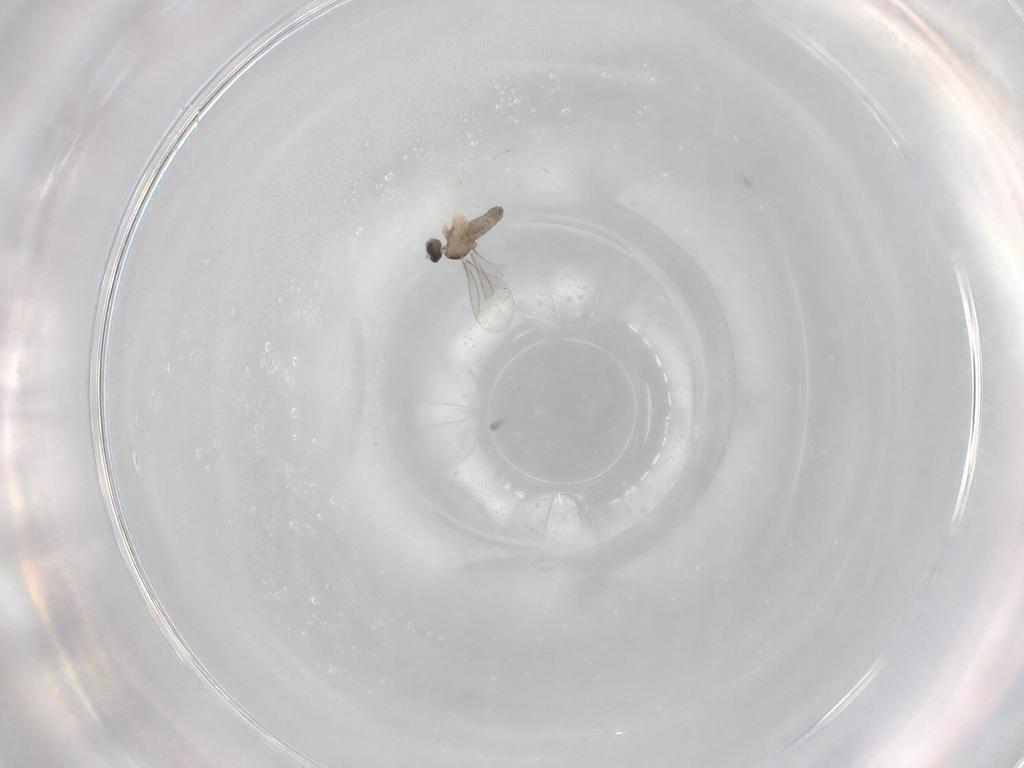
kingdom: Animalia
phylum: Arthropoda
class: Insecta
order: Diptera
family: Cecidomyiidae
